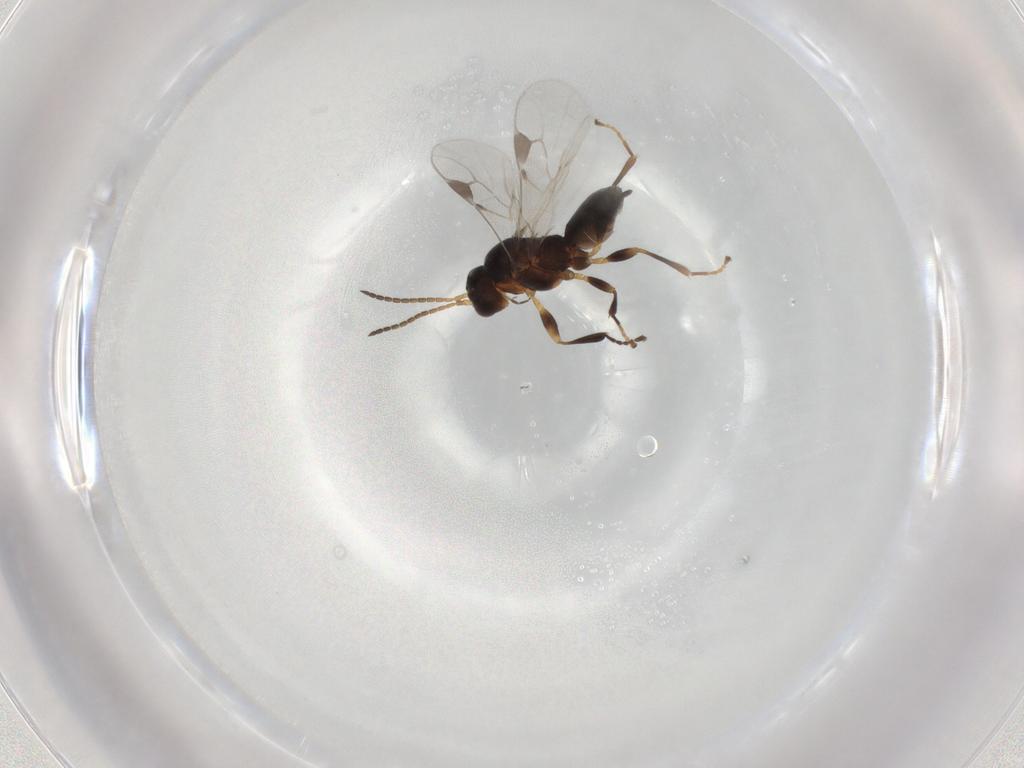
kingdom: Animalia
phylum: Arthropoda
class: Insecta
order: Hymenoptera
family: Braconidae
